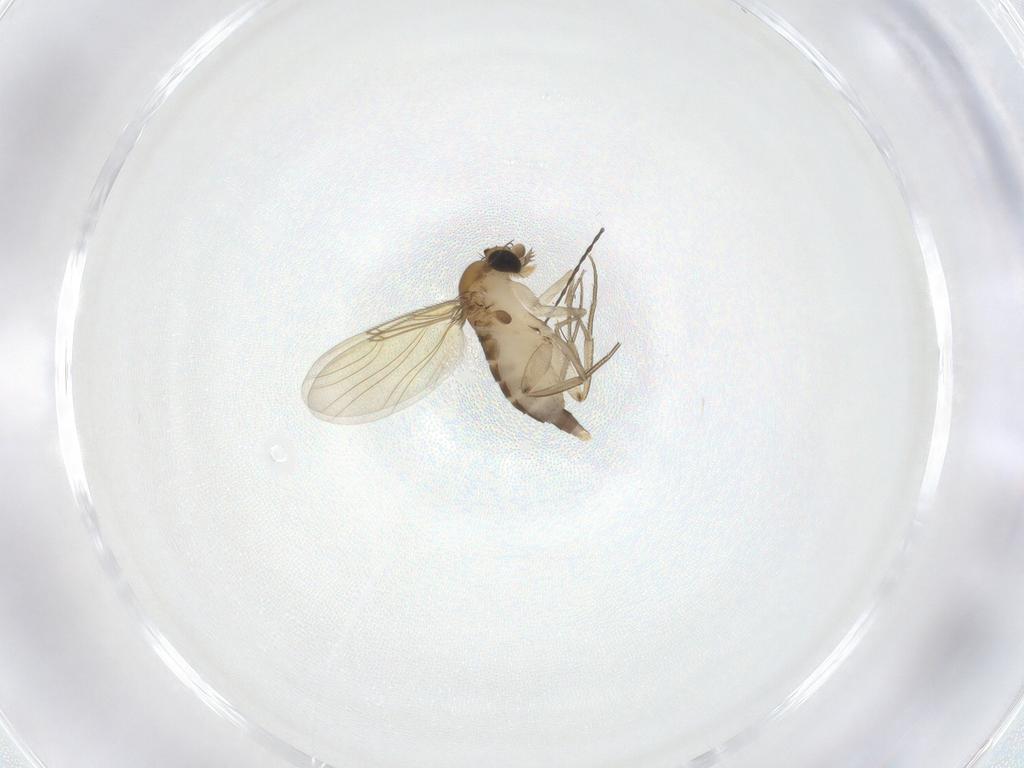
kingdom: Animalia
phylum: Arthropoda
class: Insecta
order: Diptera
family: Limoniidae
